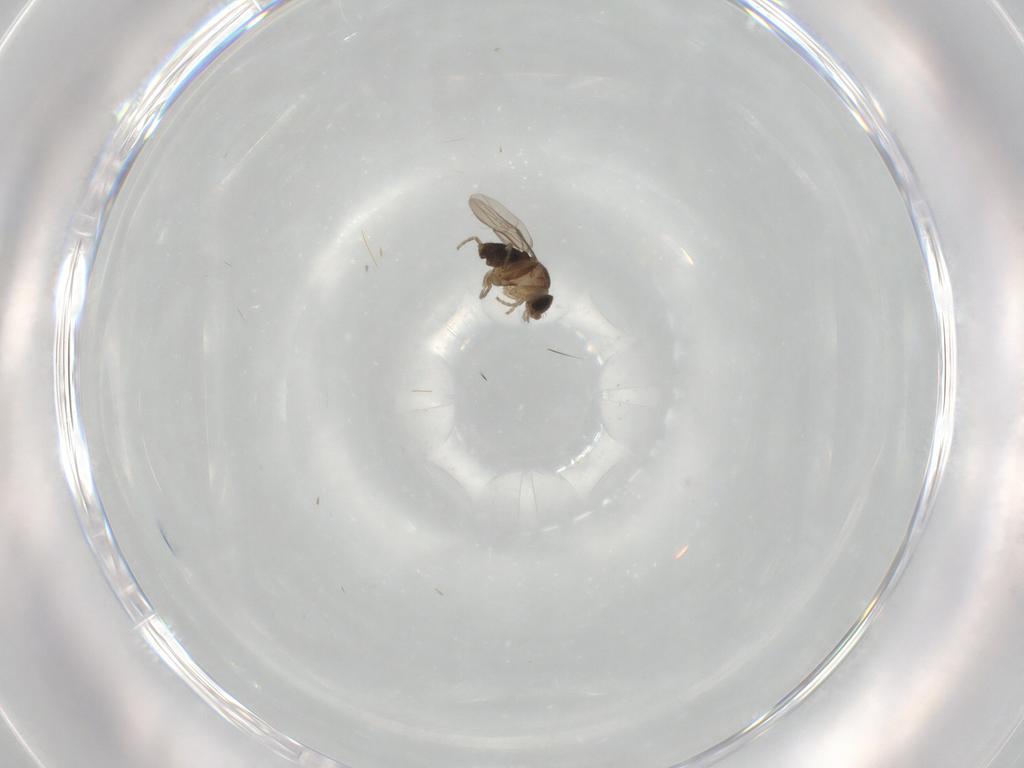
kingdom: Animalia
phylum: Arthropoda
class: Insecta
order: Diptera
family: Phoridae
